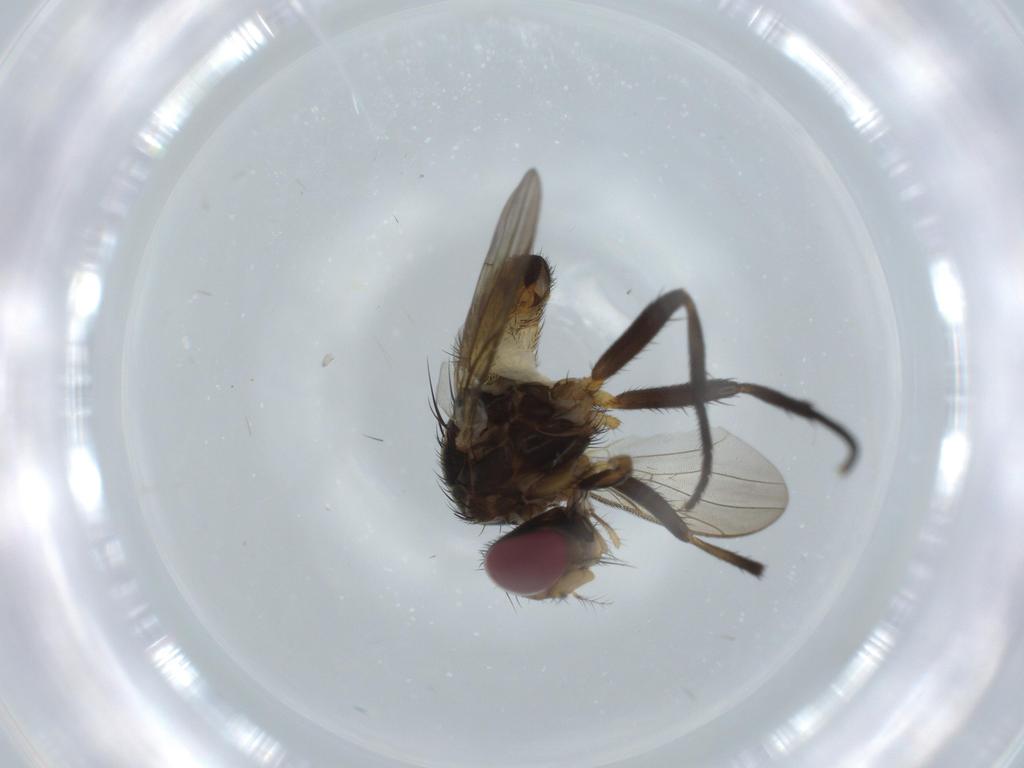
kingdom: Animalia
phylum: Arthropoda
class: Insecta
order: Diptera
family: Anthomyiidae
